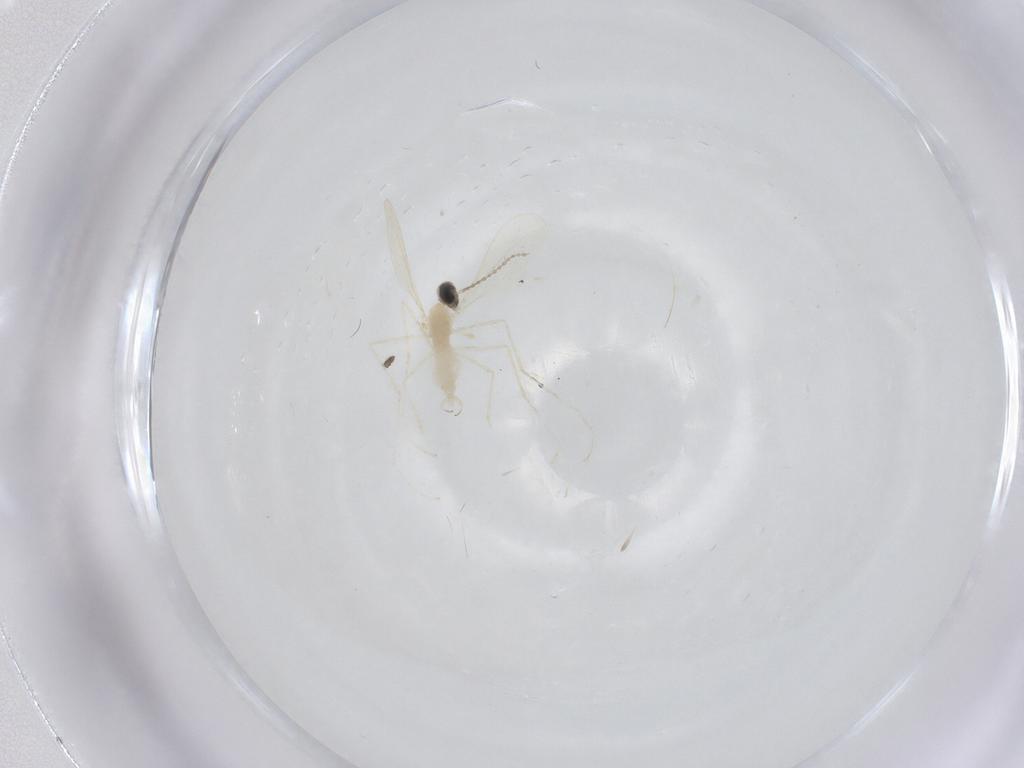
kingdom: Animalia
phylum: Arthropoda
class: Insecta
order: Diptera
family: Cecidomyiidae
